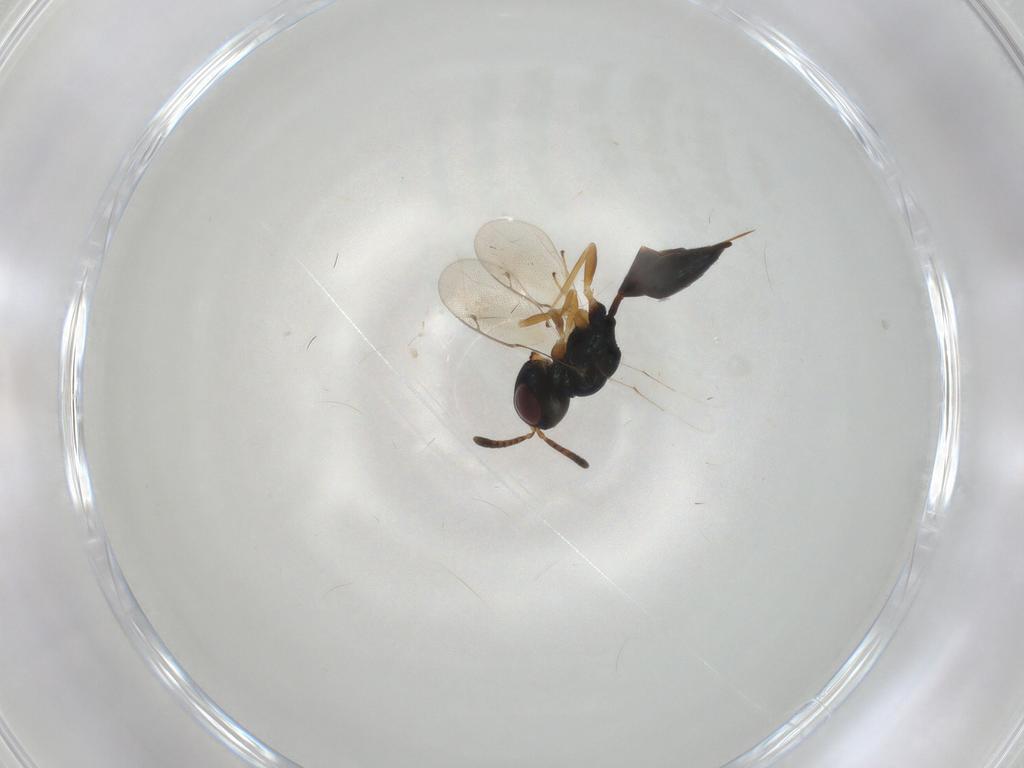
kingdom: Animalia
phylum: Arthropoda
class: Insecta
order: Hymenoptera
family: Pteromalidae
